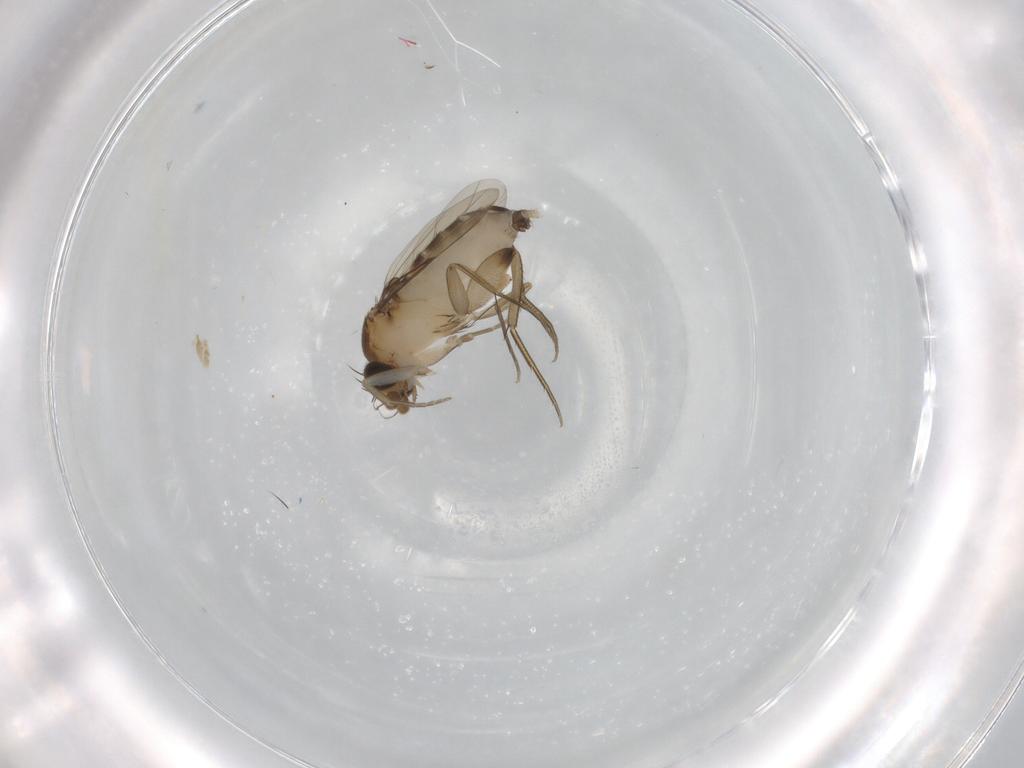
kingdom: Animalia
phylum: Arthropoda
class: Insecta
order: Diptera
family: Phoridae
